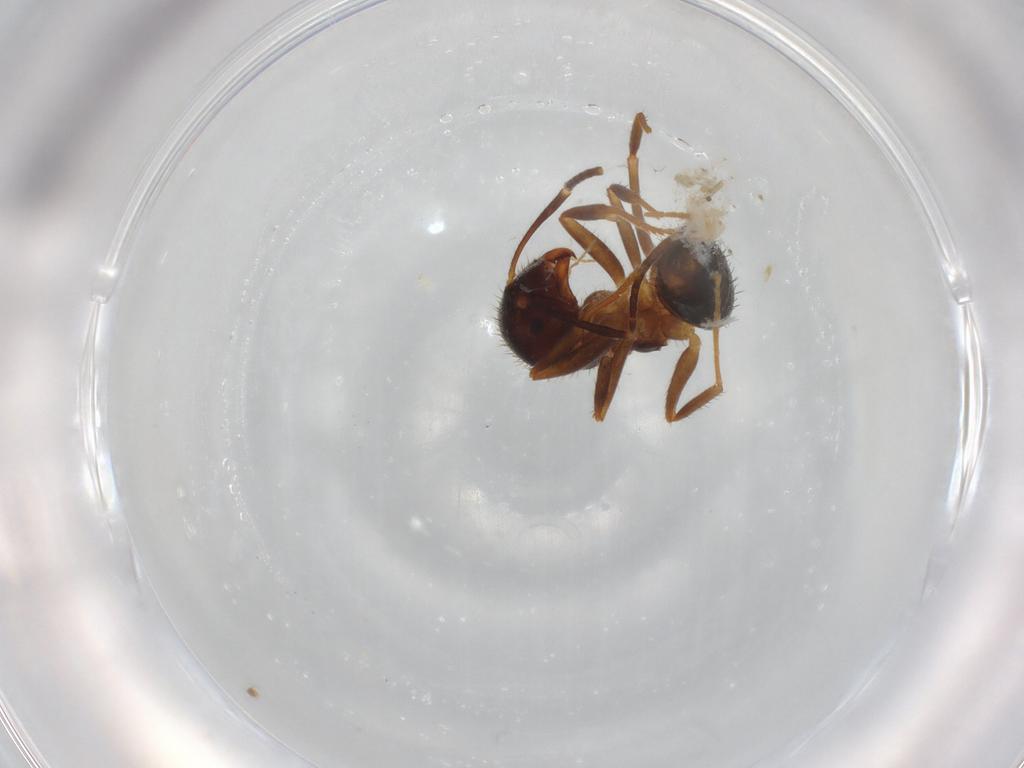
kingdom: Animalia
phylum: Arthropoda
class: Insecta
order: Hymenoptera
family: Formicidae
